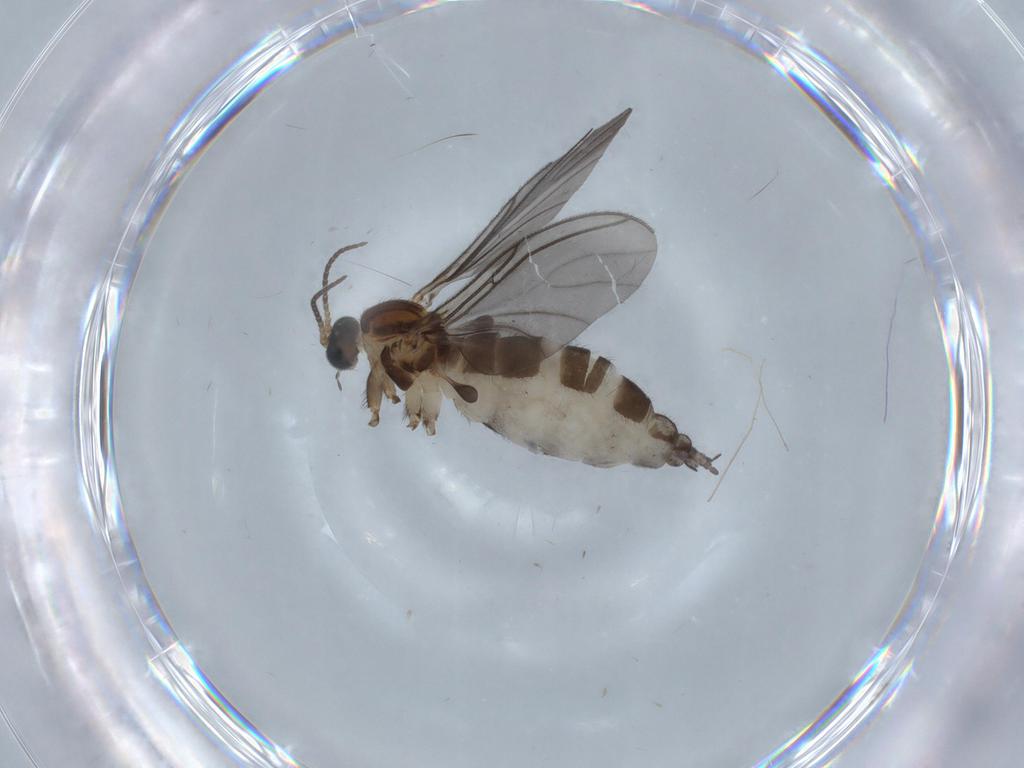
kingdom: Animalia
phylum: Arthropoda
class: Insecta
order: Diptera
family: Sciaridae
